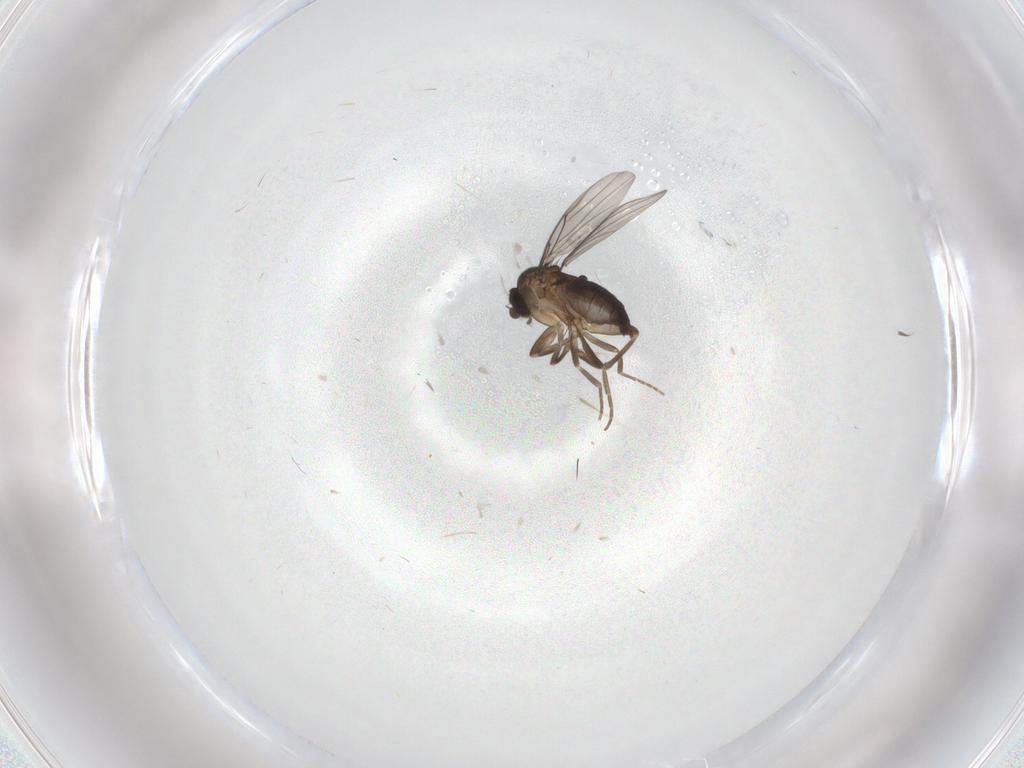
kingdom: Animalia
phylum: Arthropoda
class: Insecta
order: Diptera
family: Phoridae
